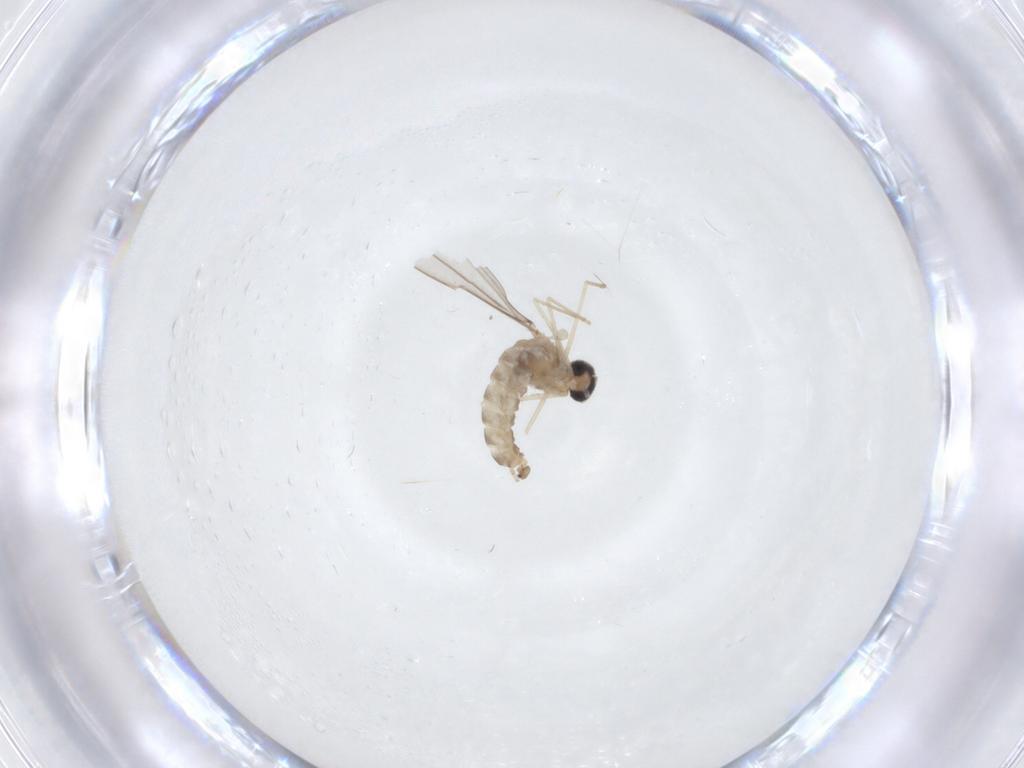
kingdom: Animalia
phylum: Arthropoda
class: Insecta
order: Diptera
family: Cecidomyiidae
